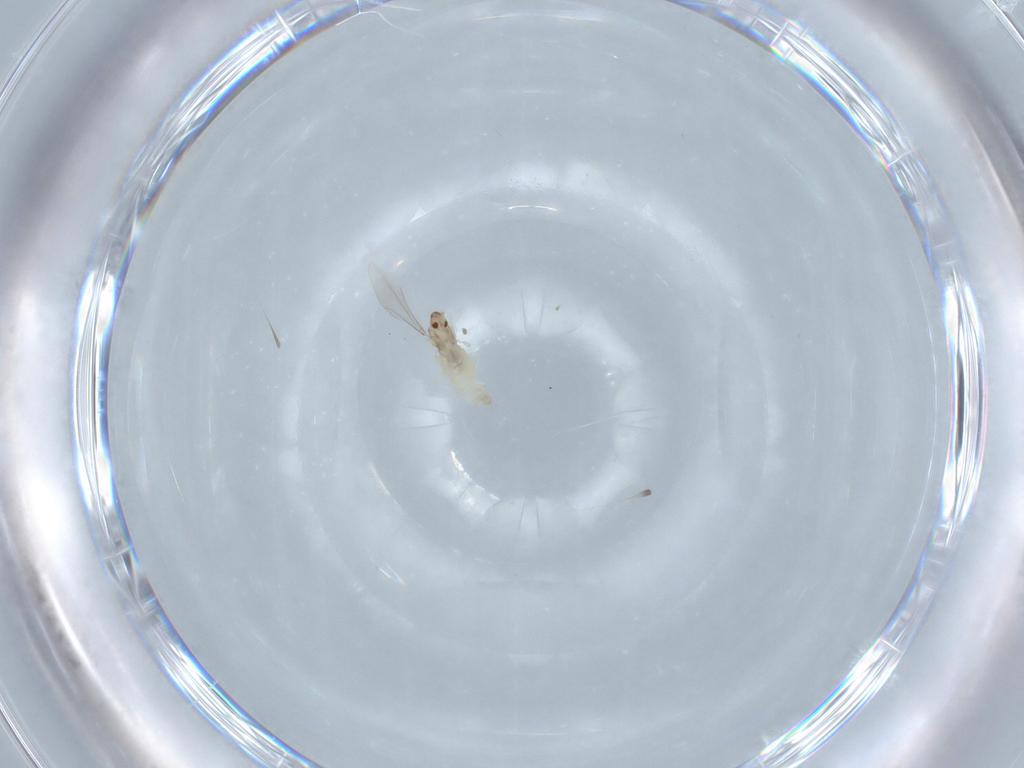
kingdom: Animalia
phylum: Arthropoda
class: Insecta
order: Diptera
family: Cecidomyiidae
